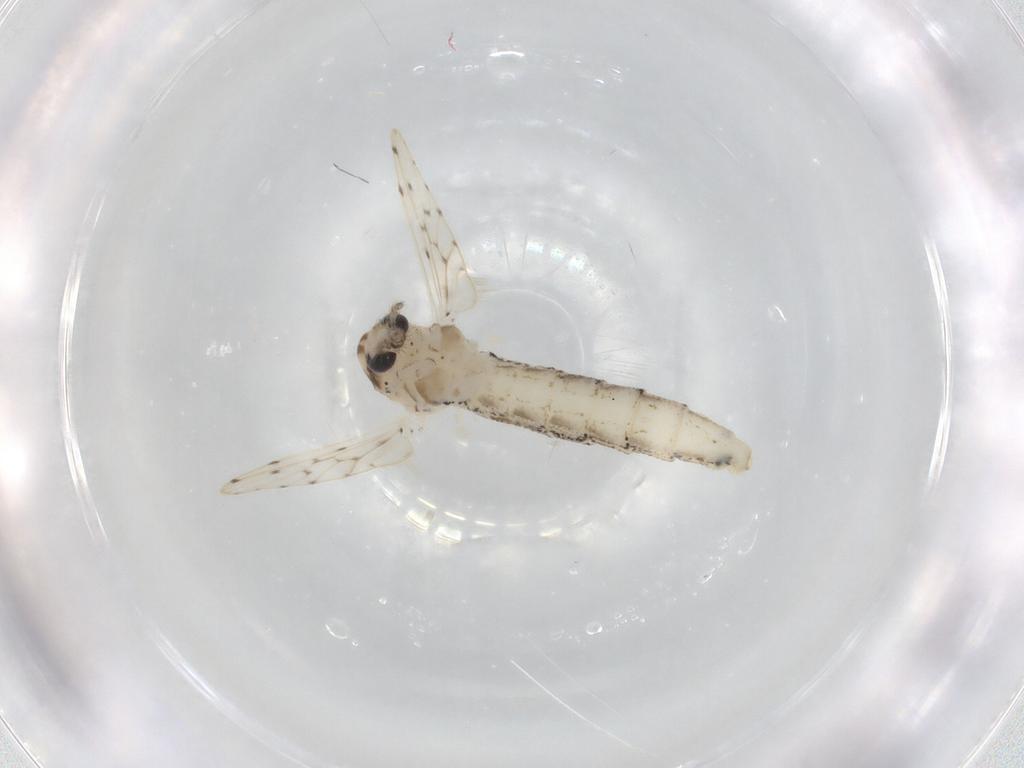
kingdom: Animalia
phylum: Arthropoda
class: Insecta
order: Diptera
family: Chaoboridae
